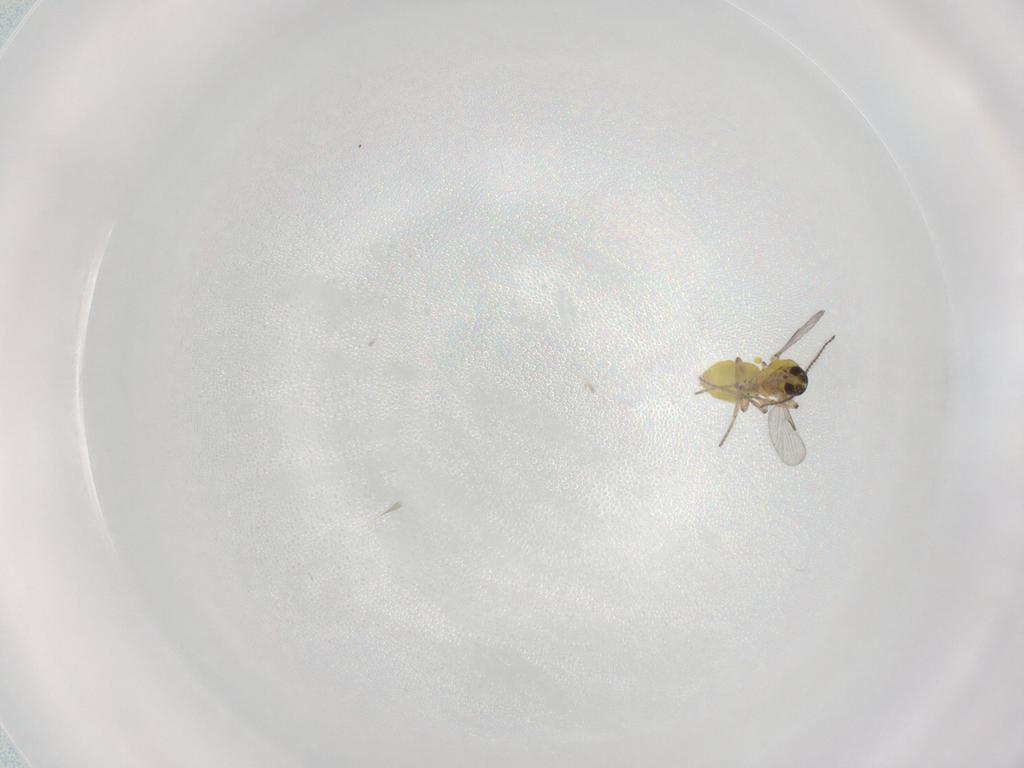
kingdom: Animalia
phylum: Arthropoda
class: Insecta
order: Diptera
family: Ceratopogonidae
